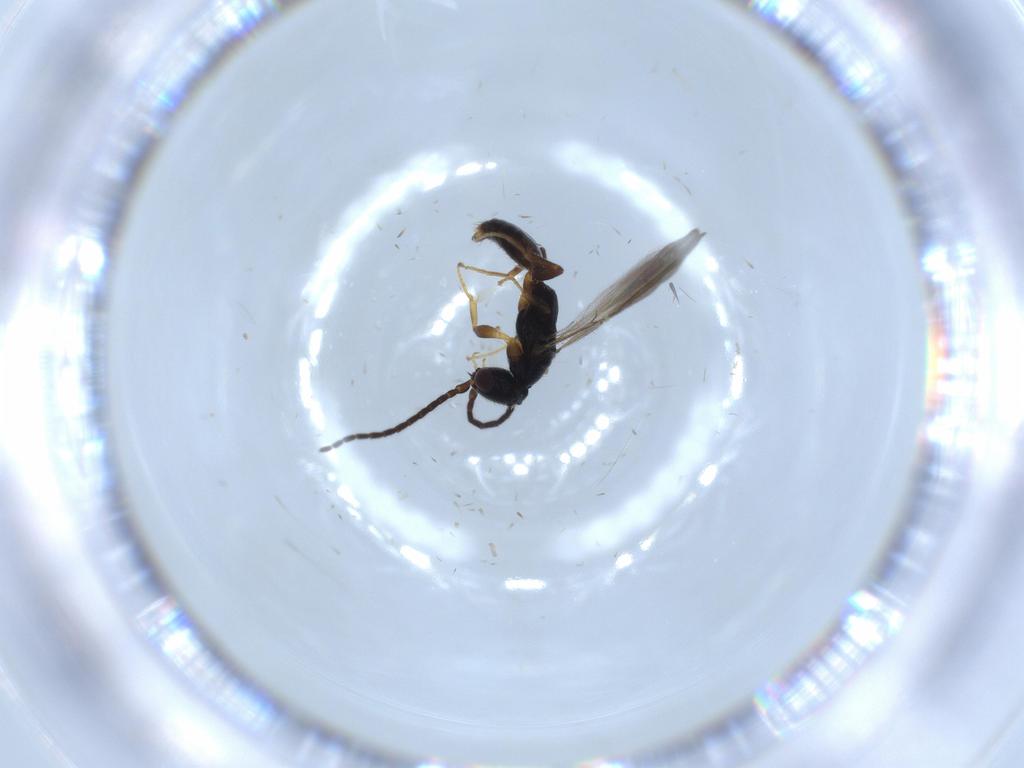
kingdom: Animalia
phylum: Arthropoda
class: Insecta
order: Hymenoptera
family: Bethylidae
